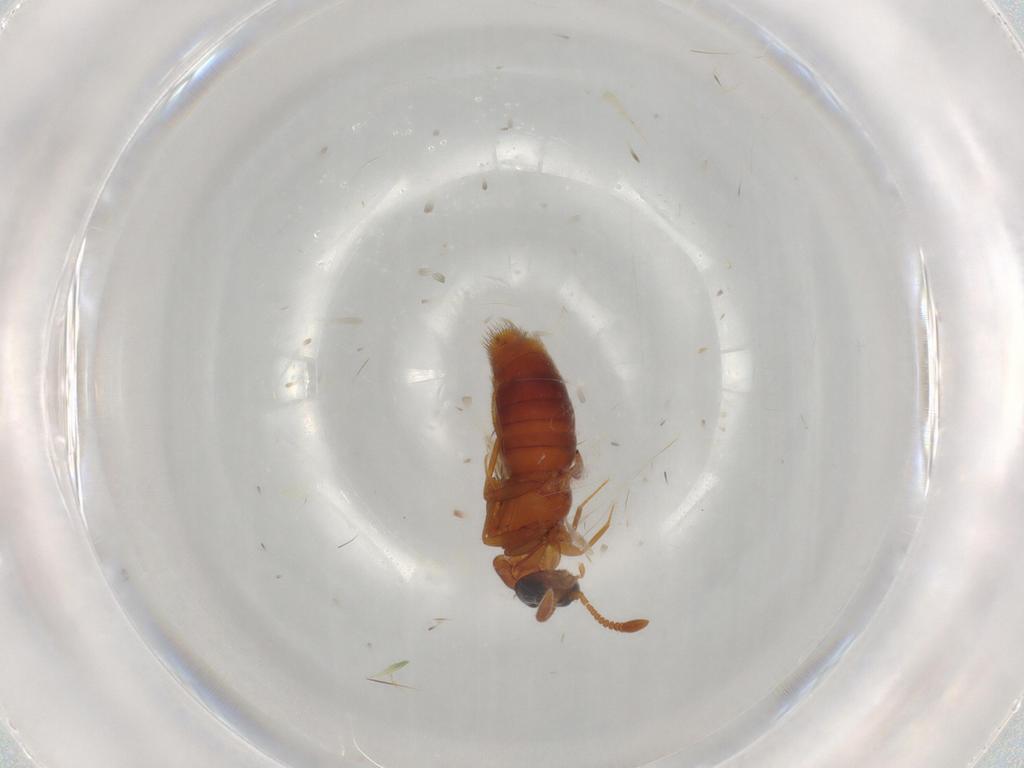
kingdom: Animalia
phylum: Arthropoda
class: Insecta
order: Coleoptera
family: Staphylinidae
